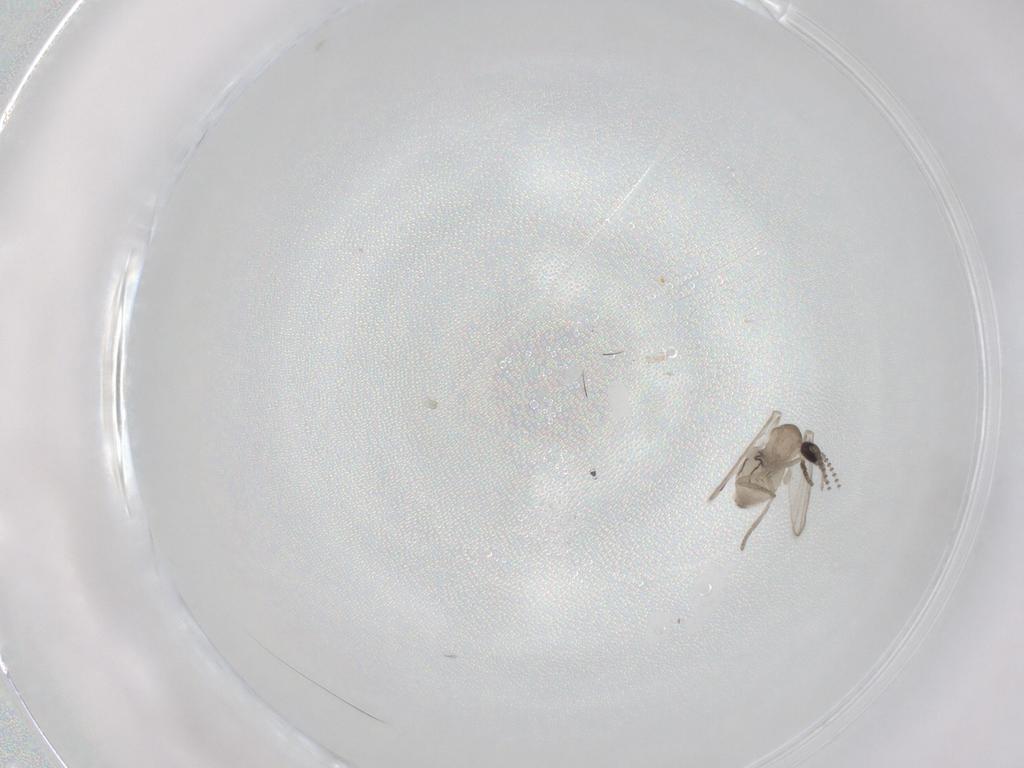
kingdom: Animalia
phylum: Arthropoda
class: Insecta
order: Diptera
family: Psychodidae
